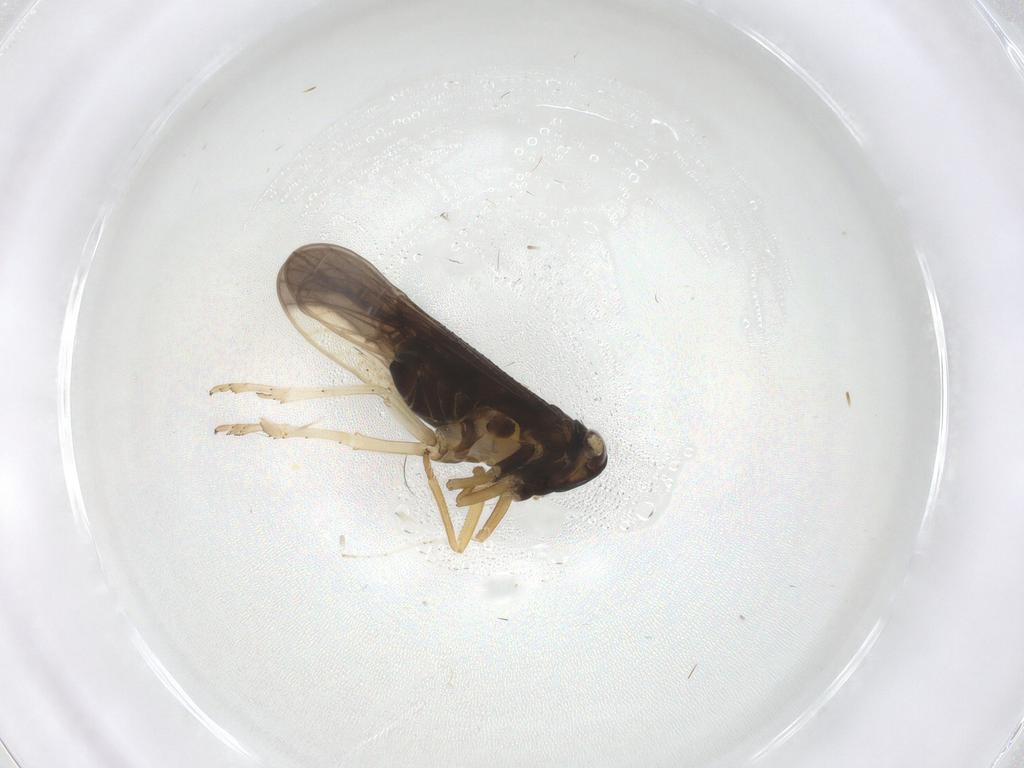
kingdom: Animalia
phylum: Arthropoda
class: Insecta
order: Hemiptera
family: Delphacidae
